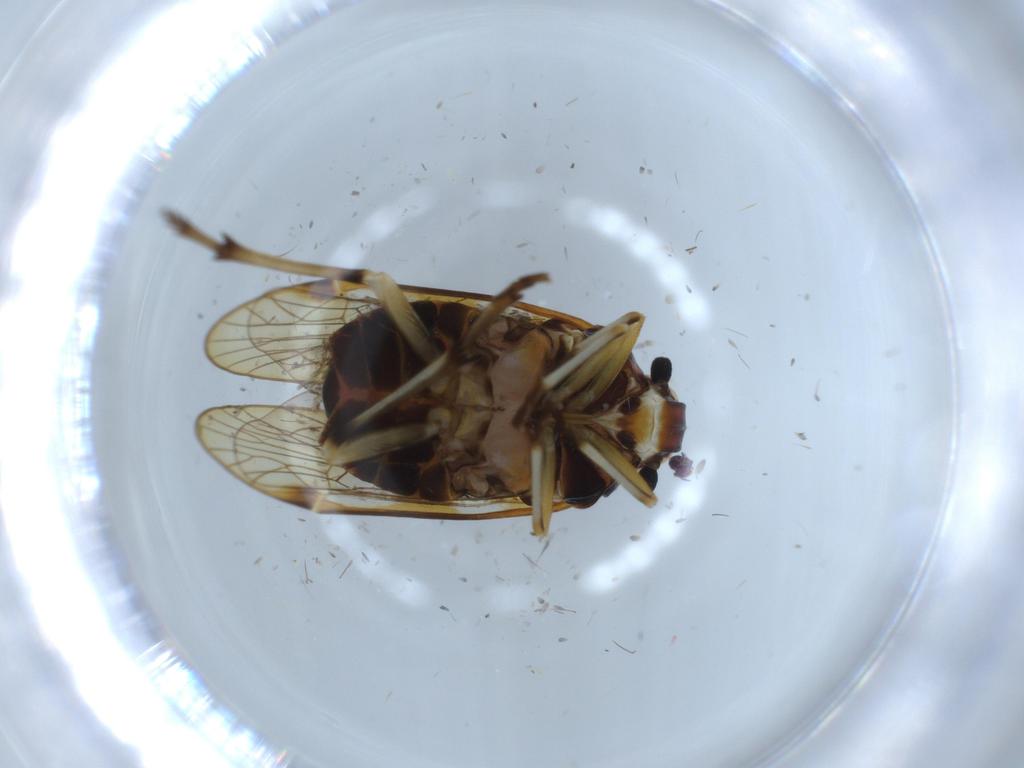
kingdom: Animalia
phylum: Arthropoda
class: Insecta
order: Hemiptera
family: Kinnaridae
